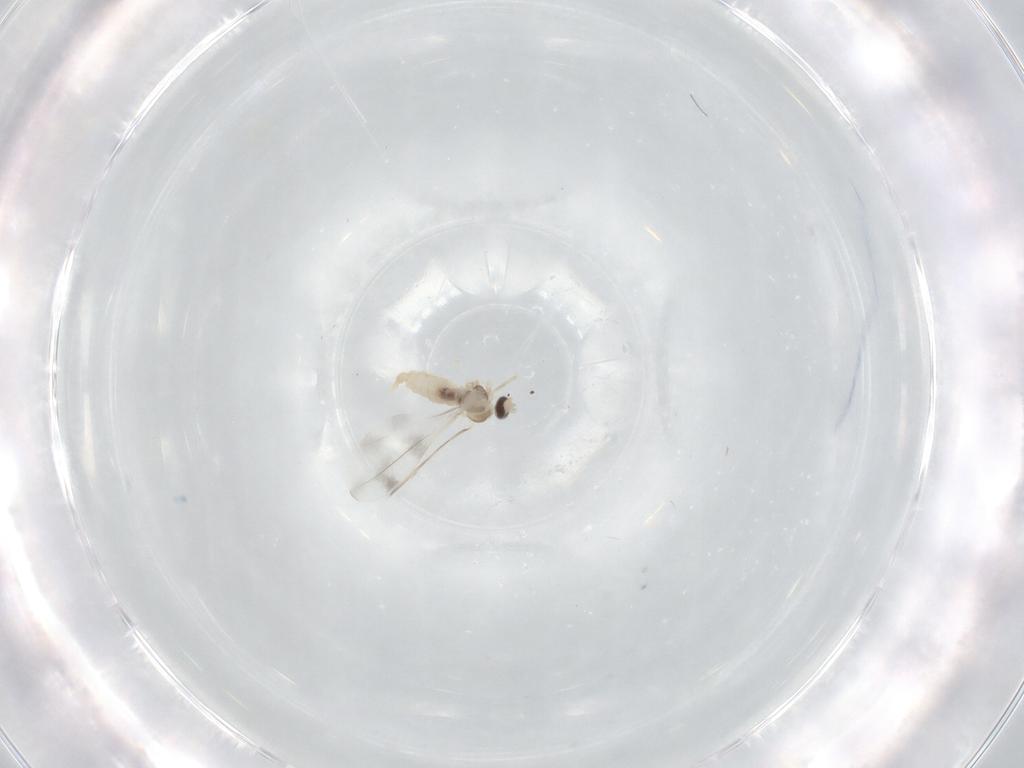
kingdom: Animalia
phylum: Arthropoda
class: Insecta
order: Diptera
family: Cecidomyiidae
